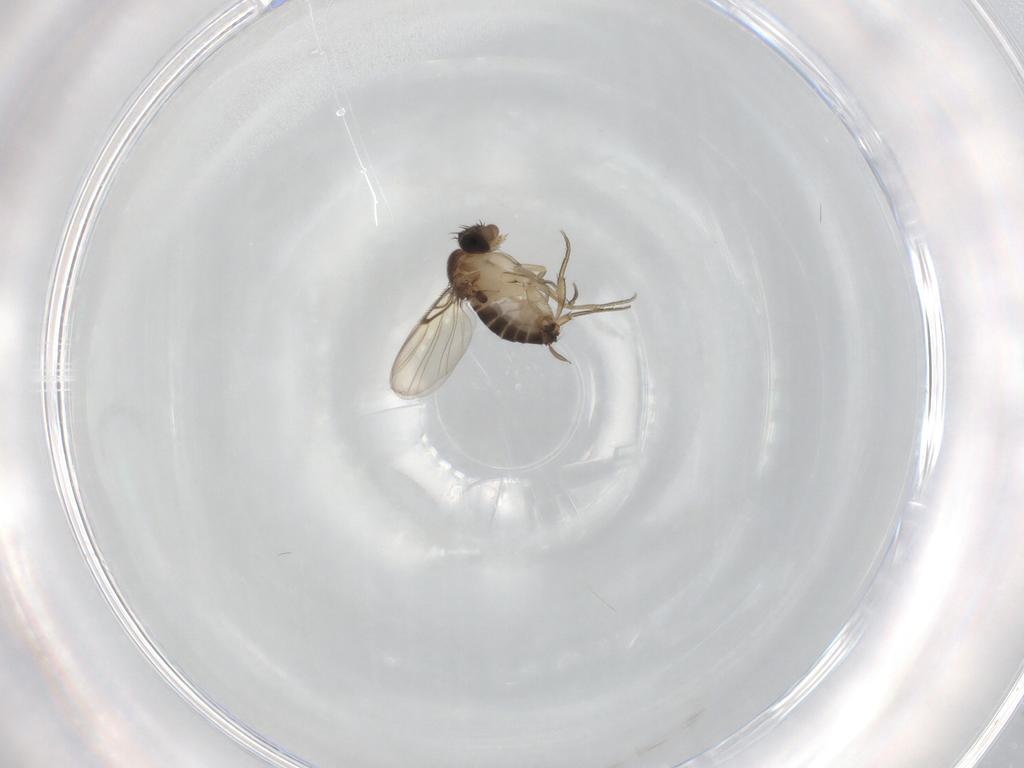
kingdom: Animalia
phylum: Arthropoda
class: Insecta
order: Diptera
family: Phoridae
